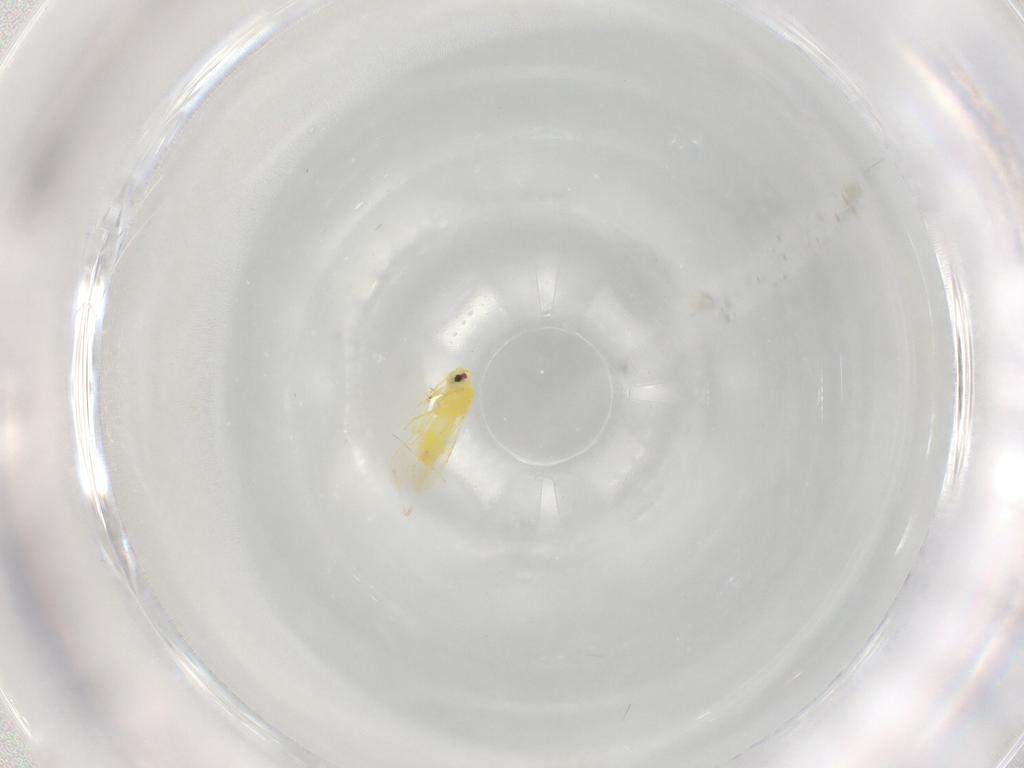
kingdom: Animalia
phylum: Arthropoda
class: Insecta
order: Hemiptera
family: Aleyrodidae
